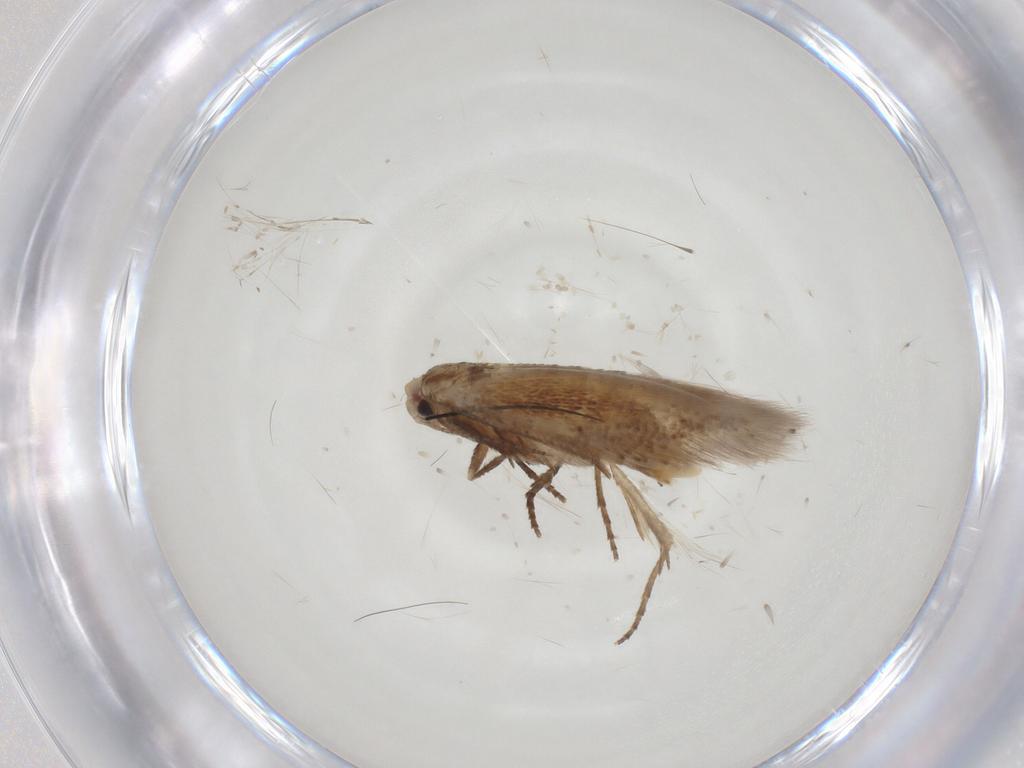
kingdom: Animalia
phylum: Arthropoda
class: Insecta
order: Lepidoptera
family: Bucculatricidae
